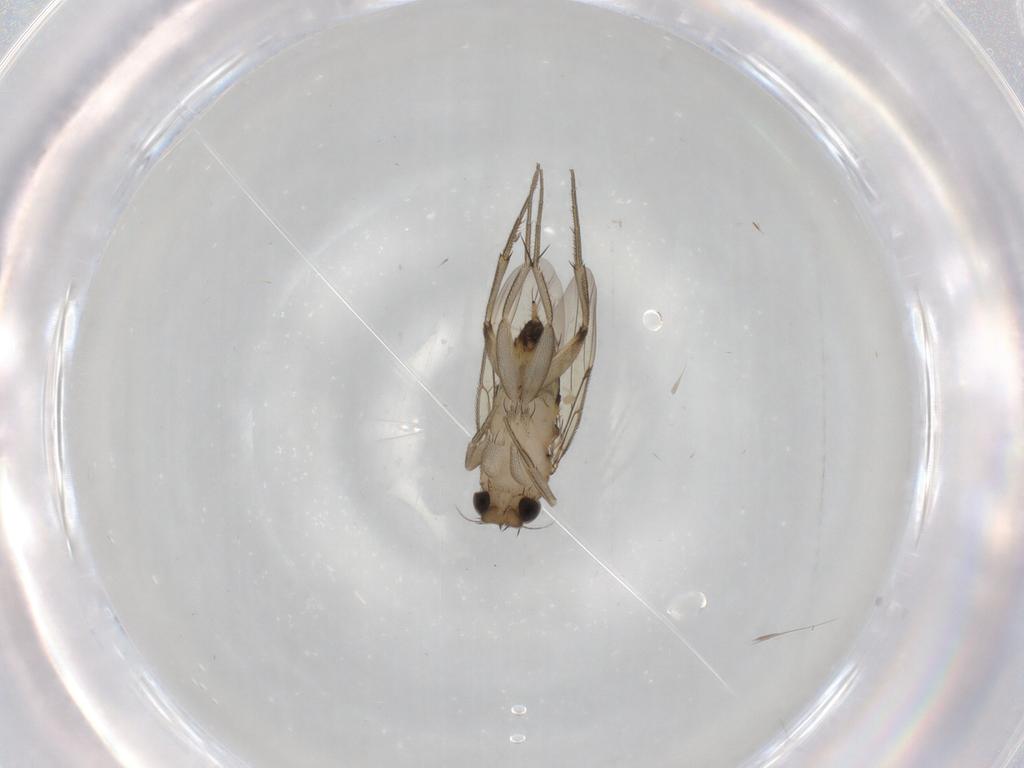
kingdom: Animalia
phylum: Arthropoda
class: Insecta
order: Diptera
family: Phoridae
